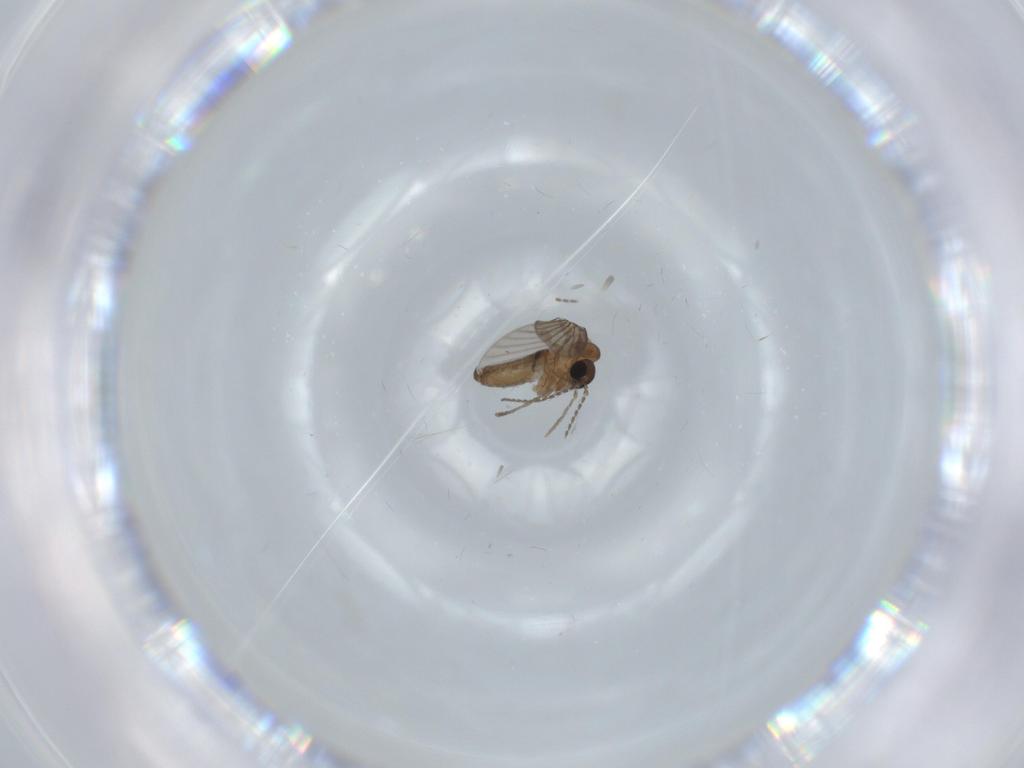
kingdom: Animalia
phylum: Arthropoda
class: Insecta
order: Diptera
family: Psychodidae
